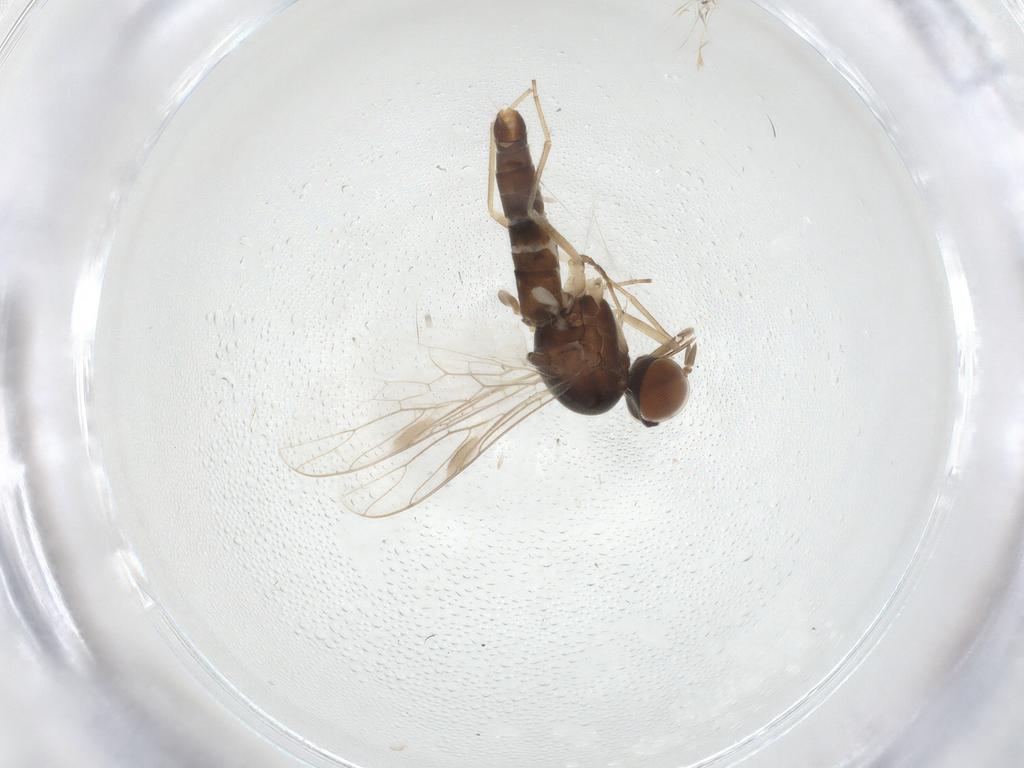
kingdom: Animalia
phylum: Arthropoda
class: Insecta
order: Diptera
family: Scenopinidae
